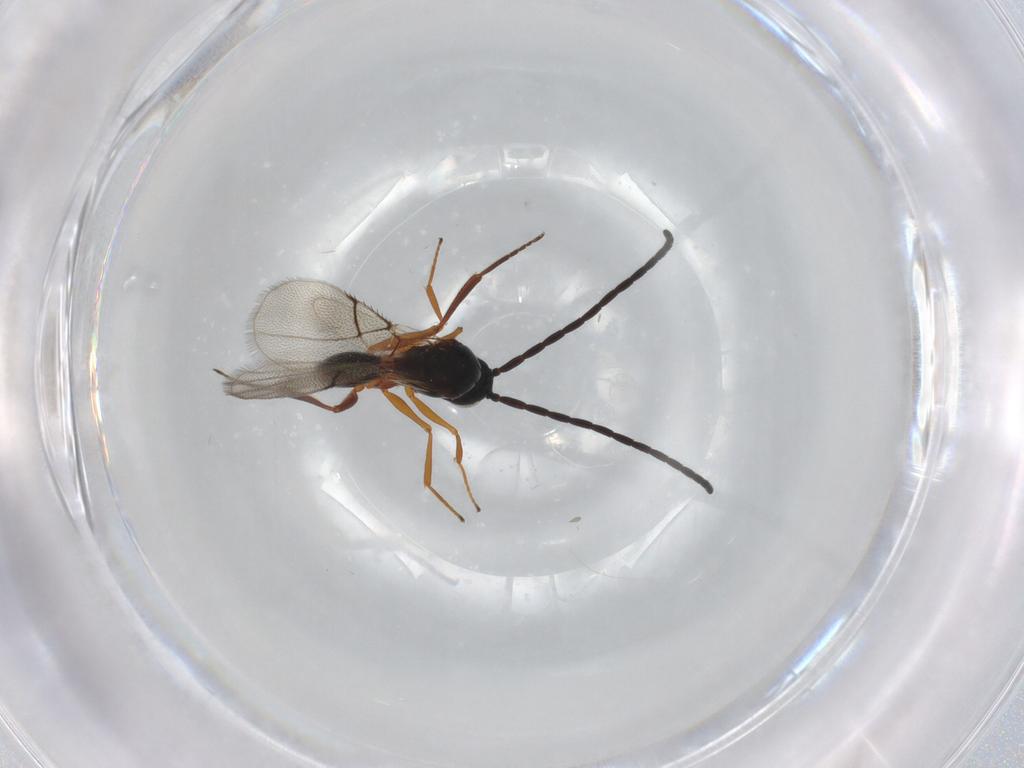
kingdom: Animalia
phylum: Arthropoda
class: Insecta
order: Hymenoptera
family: Figitidae
